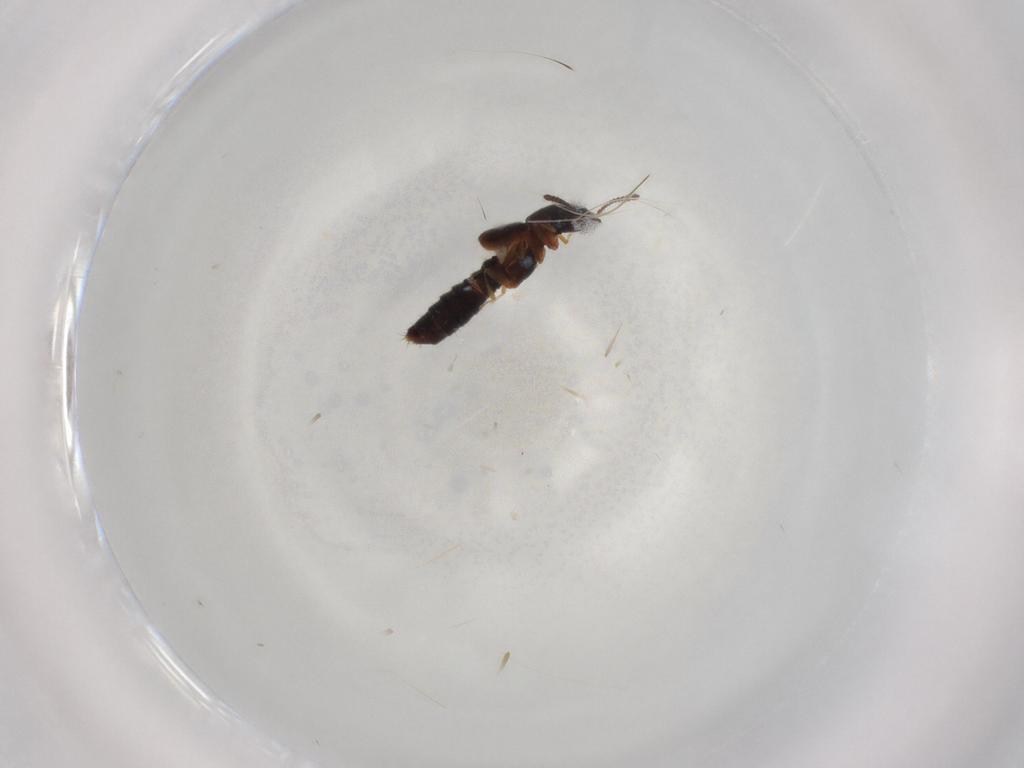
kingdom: Animalia
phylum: Arthropoda
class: Insecta
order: Coleoptera
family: Staphylinidae
